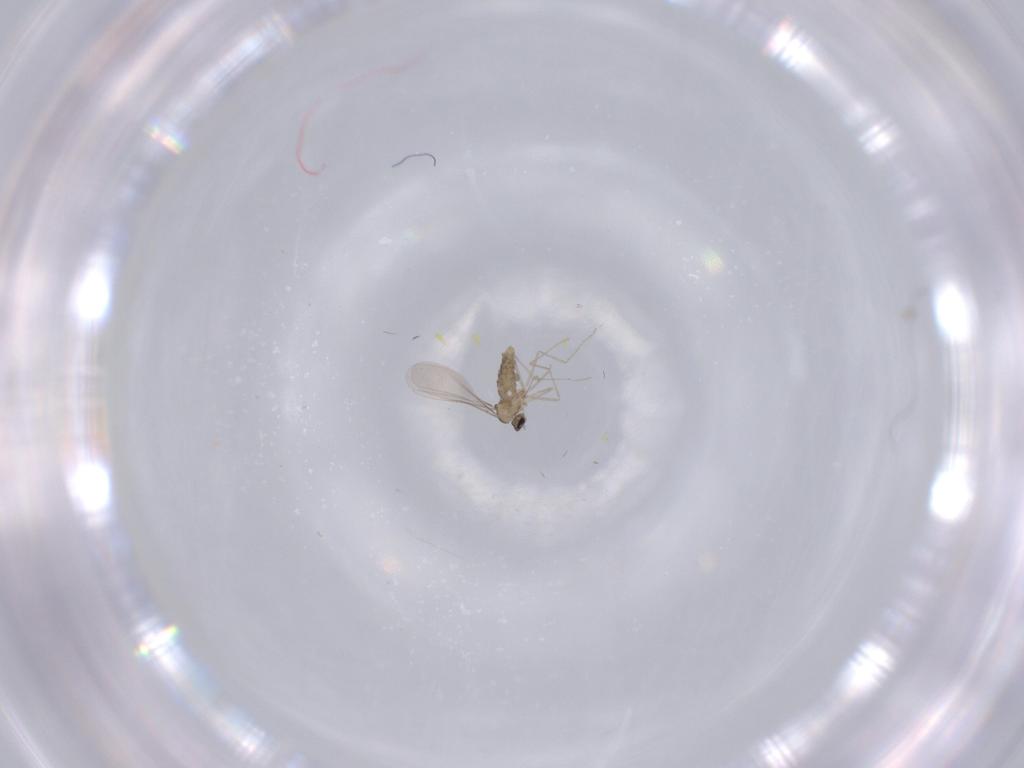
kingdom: Animalia
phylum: Arthropoda
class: Insecta
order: Diptera
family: Cecidomyiidae
